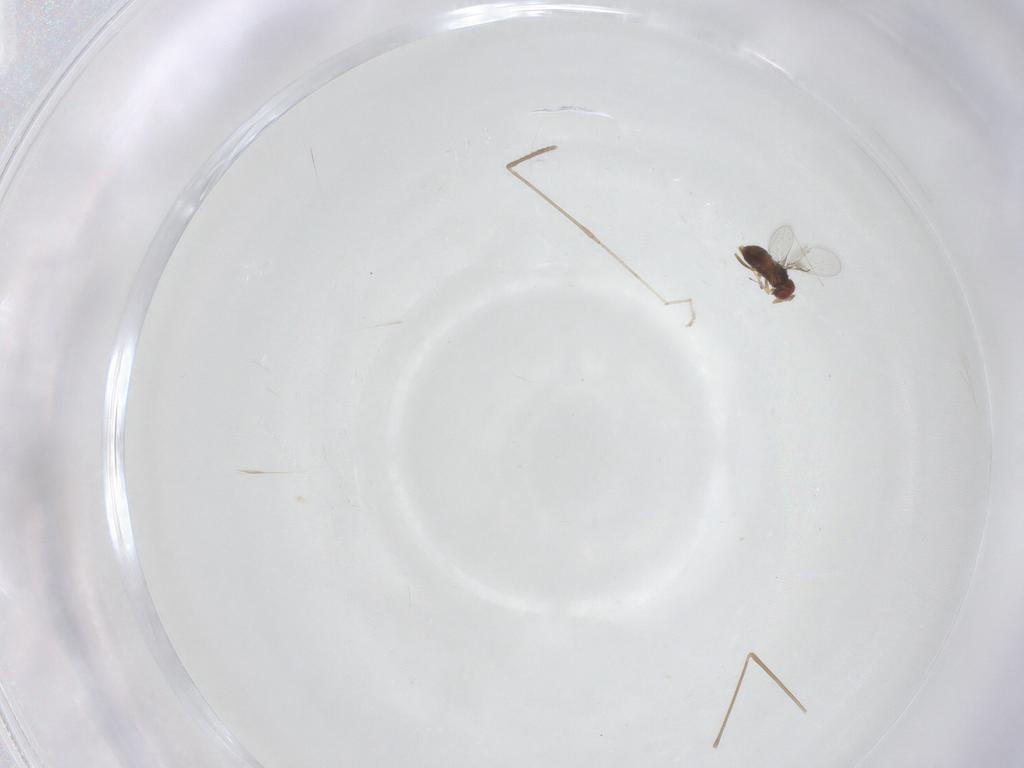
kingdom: Animalia
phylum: Arthropoda
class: Insecta
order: Diptera
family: Cecidomyiidae
